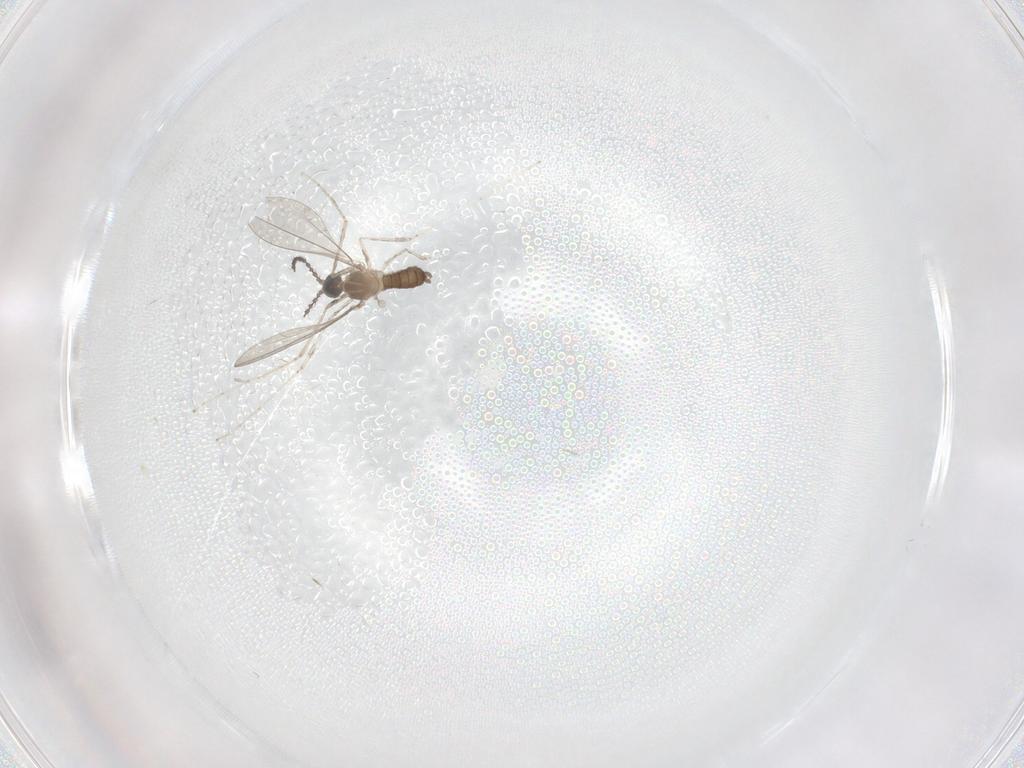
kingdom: Animalia
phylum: Arthropoda
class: Insecta
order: Diptera
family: Cecidomyiidae
